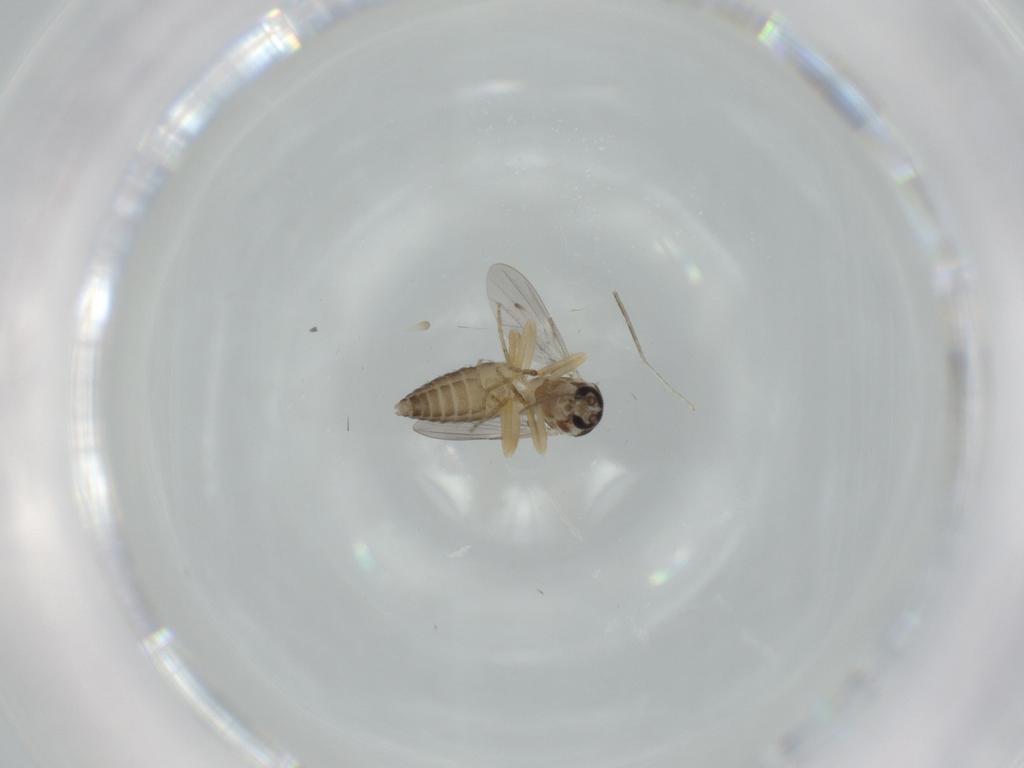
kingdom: Animalia
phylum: Arthropoda
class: Insecta
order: Diptera
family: Ceratopogonidae
